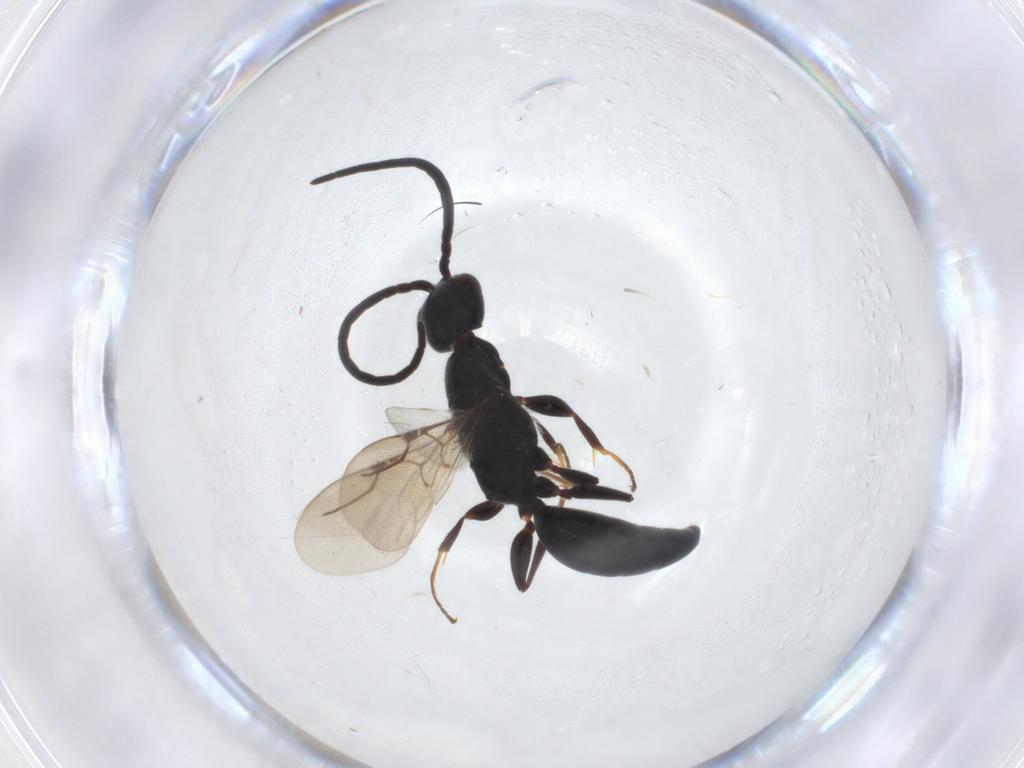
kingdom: Animalia
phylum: Arthropoda
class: Insecta
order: Hymenoptera
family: Bethylidae
